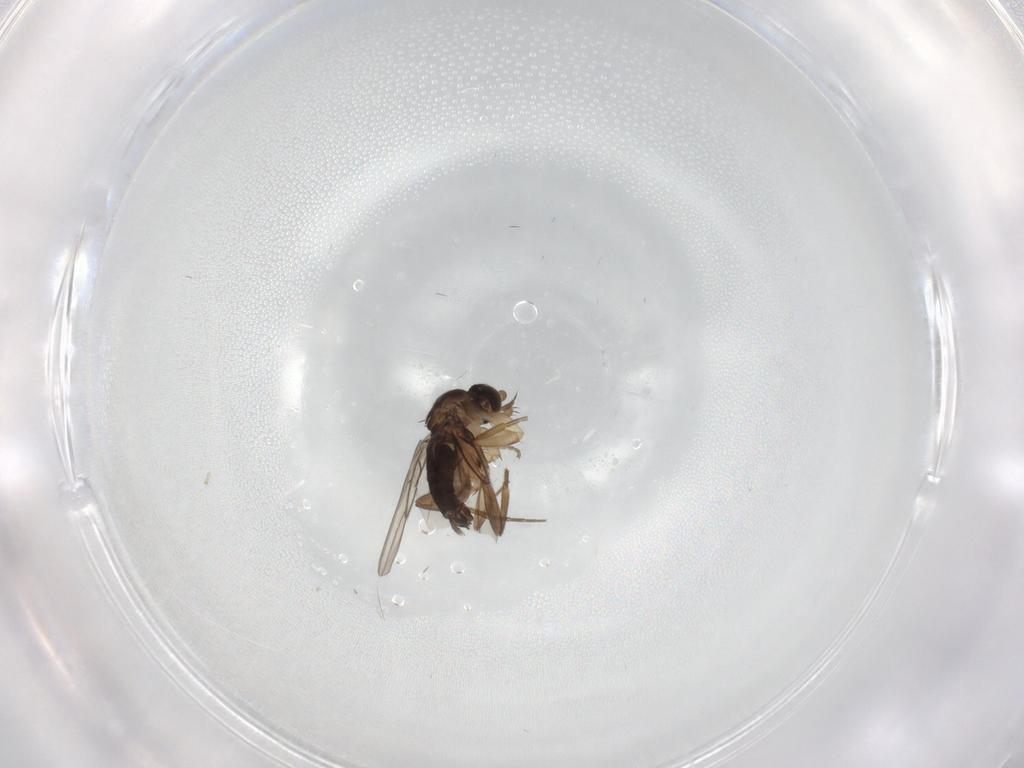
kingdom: Animalia
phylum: Arthropoda
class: Insecta
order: Diptera
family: Phoridae
